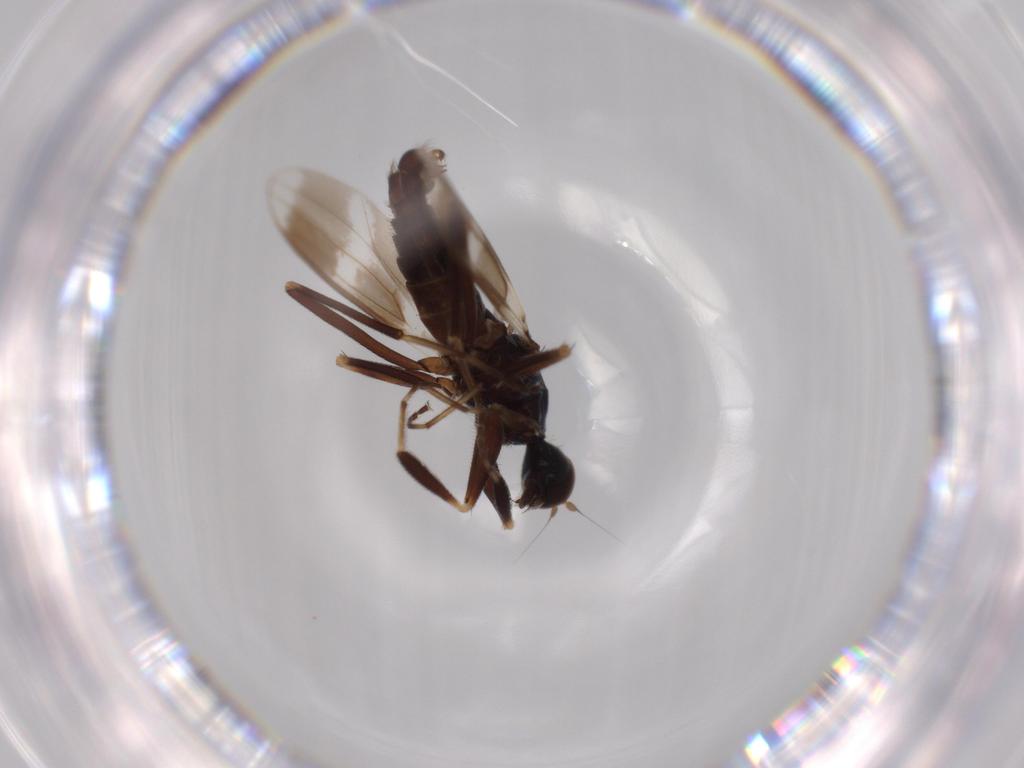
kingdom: Animalia
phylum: Arthropoda
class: Insecta
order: Diptera
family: Hybotidae
